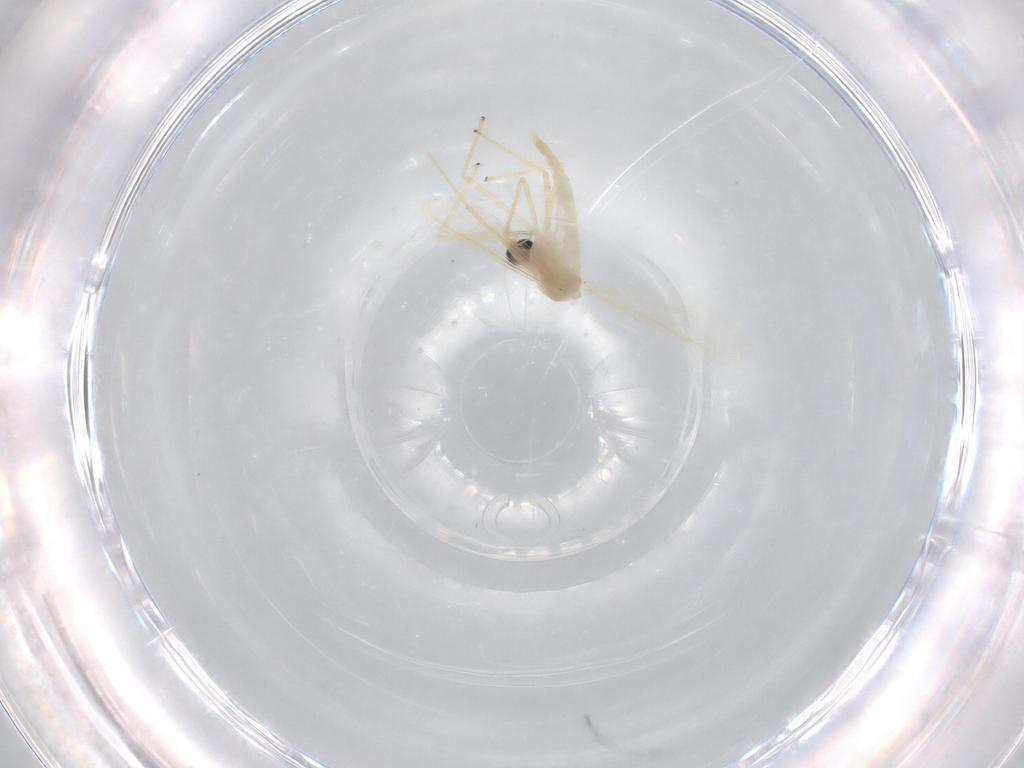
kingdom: Animalia
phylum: Arthropoda
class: Insecta
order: Diptera
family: Chironomidae
